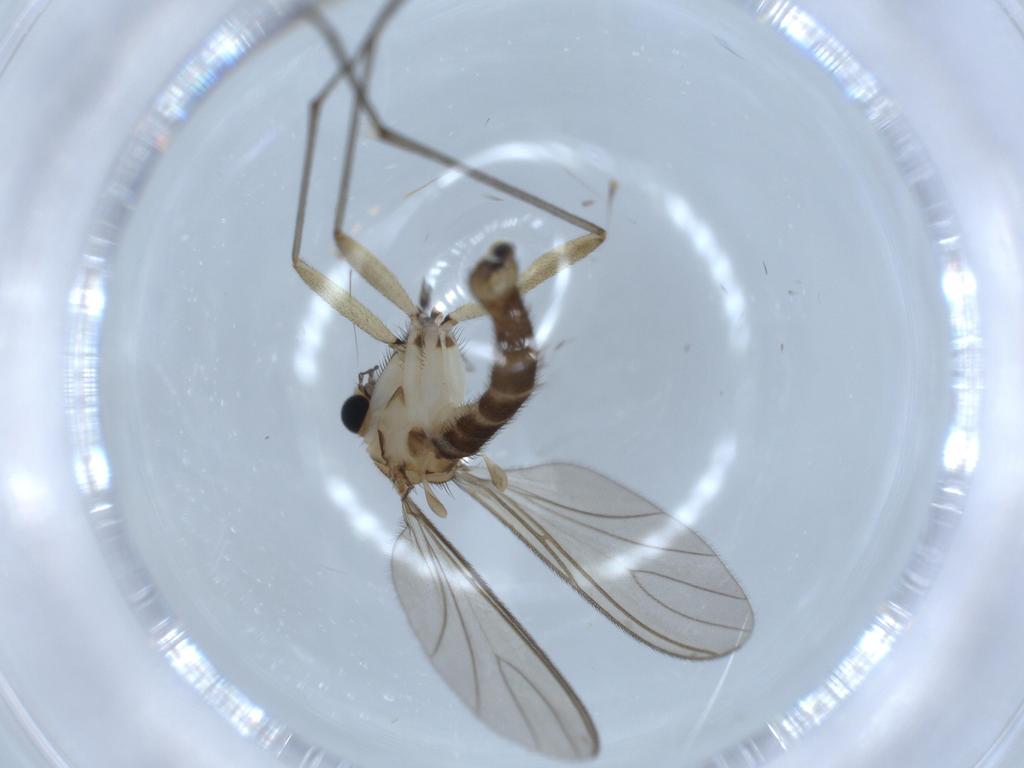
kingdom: Animalia
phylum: Arthropoda
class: Insecta
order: Diptera
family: Sciaridae
